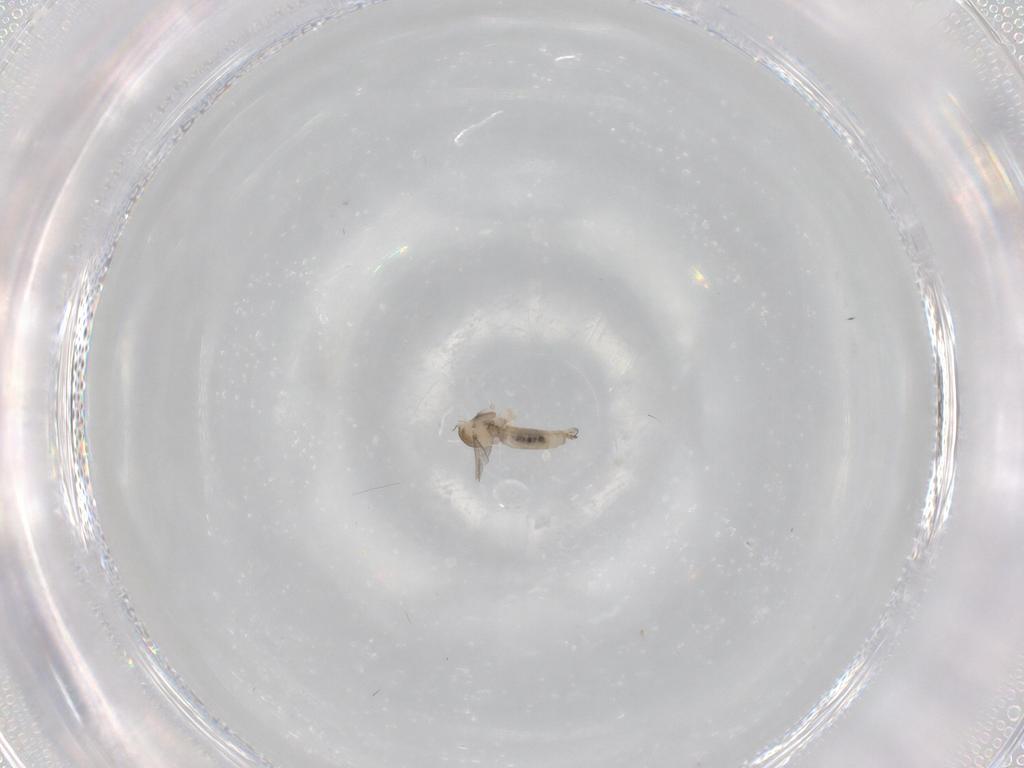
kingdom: Animalia
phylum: Arthropoda
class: Insecta
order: Diptera
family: Cecidomyiidae
